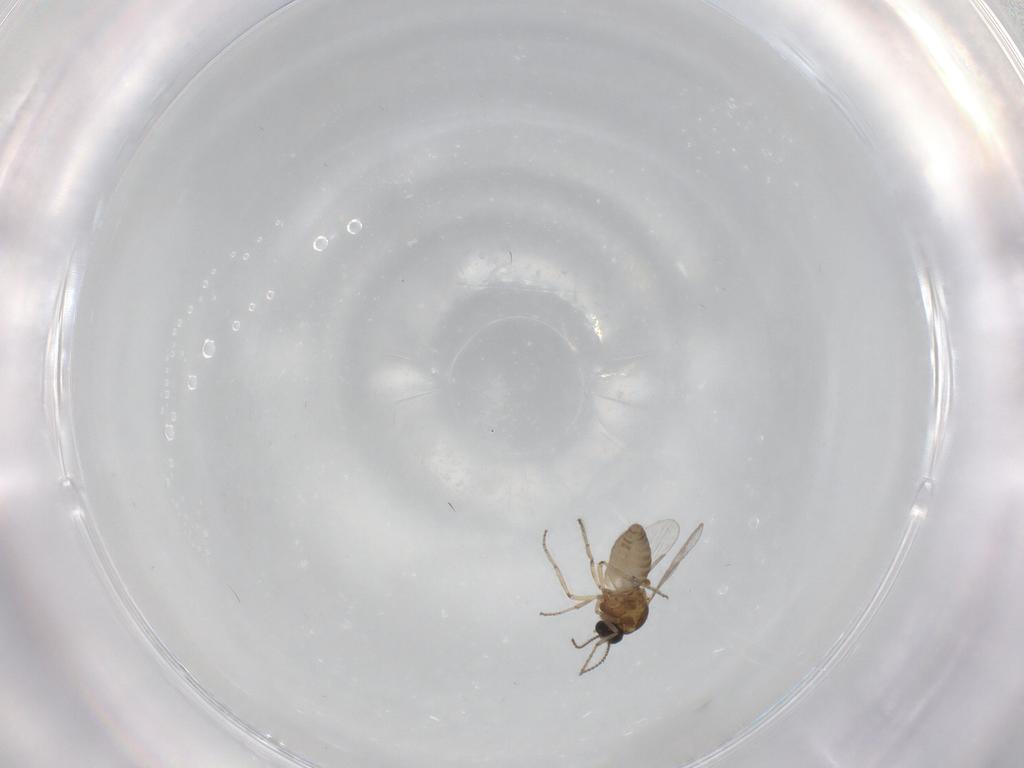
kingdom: Animalia
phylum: Arthropoda
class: Insecta
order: Diptera
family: Ceratopogonidae
